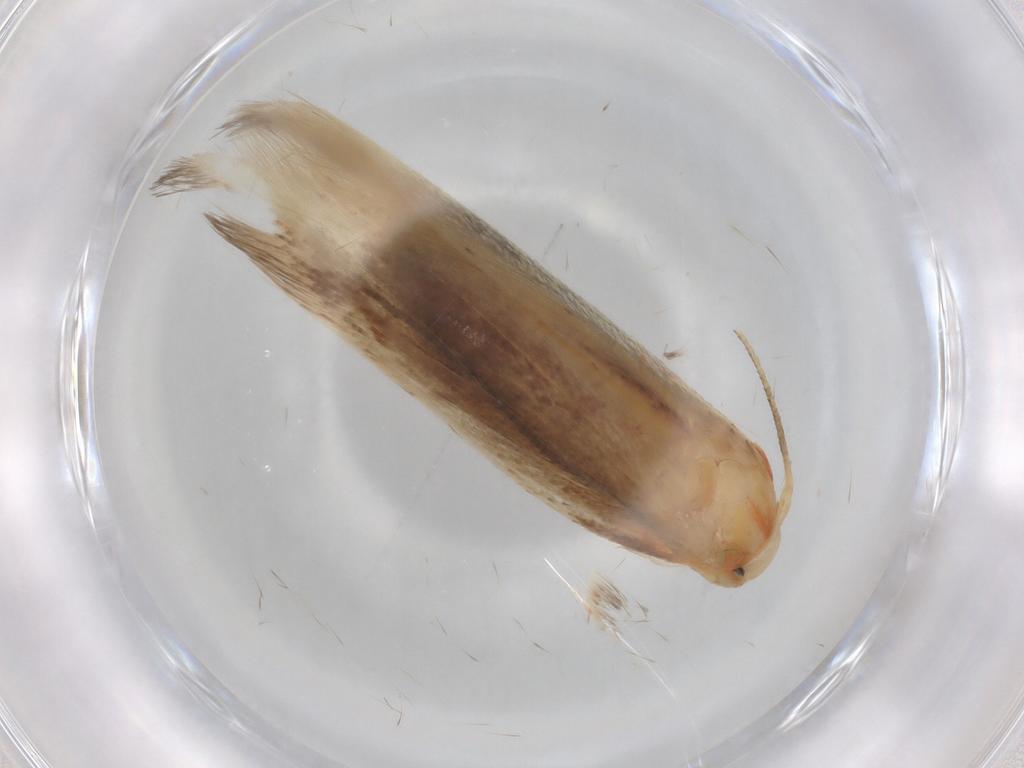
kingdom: Animalia
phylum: Arthropoda
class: Insecta
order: Lepidoptera
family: Geometridae
